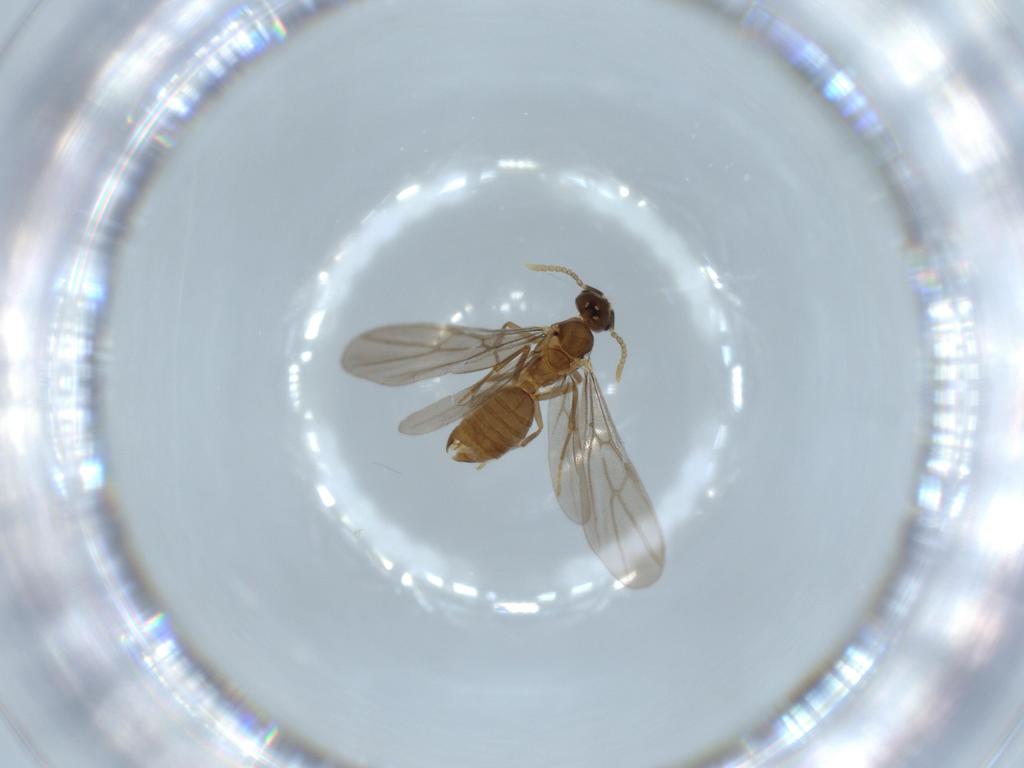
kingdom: Animalia
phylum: Arthropoda
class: Insecta
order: Hymenoptera
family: Formicidae
